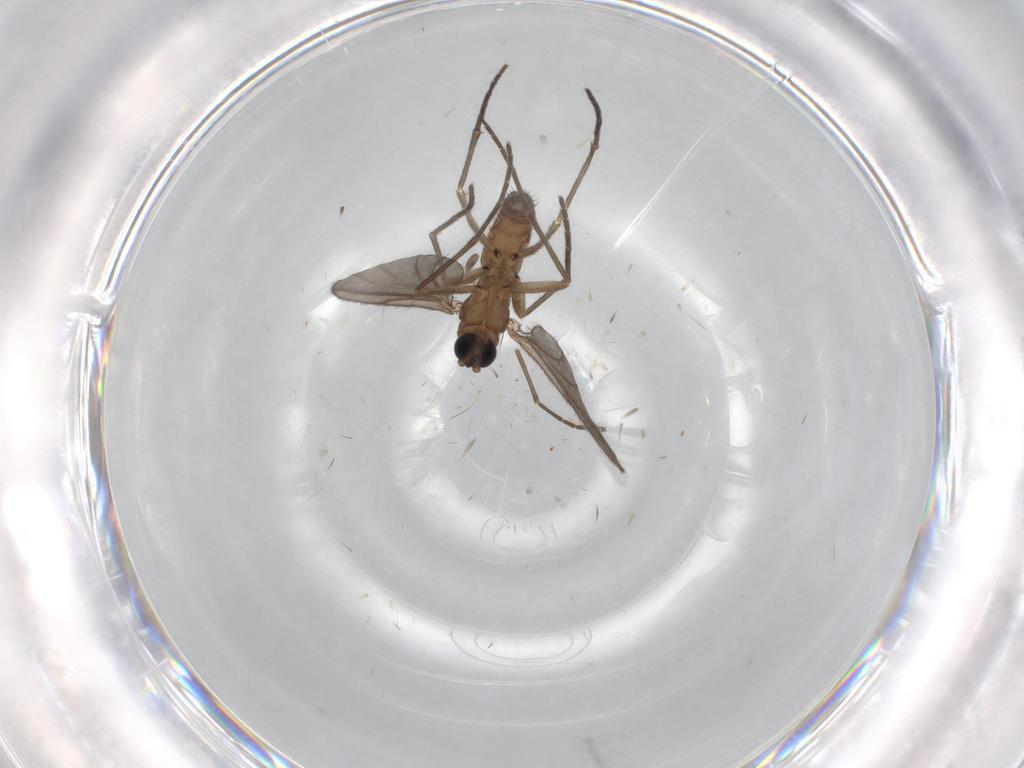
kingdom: Animalia
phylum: Arthropoda
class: Insecta
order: Diptera
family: Sciaridae
